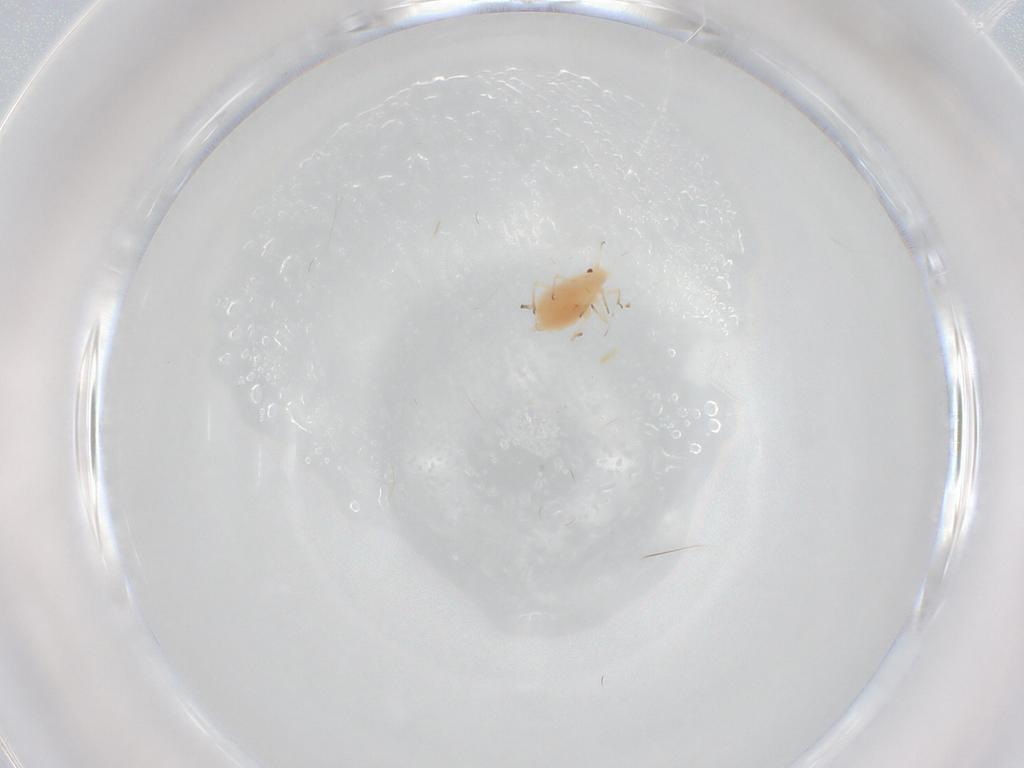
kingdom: Animalia
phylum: Arthropoda
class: Insecta
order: Hemiptera
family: Aphididae
